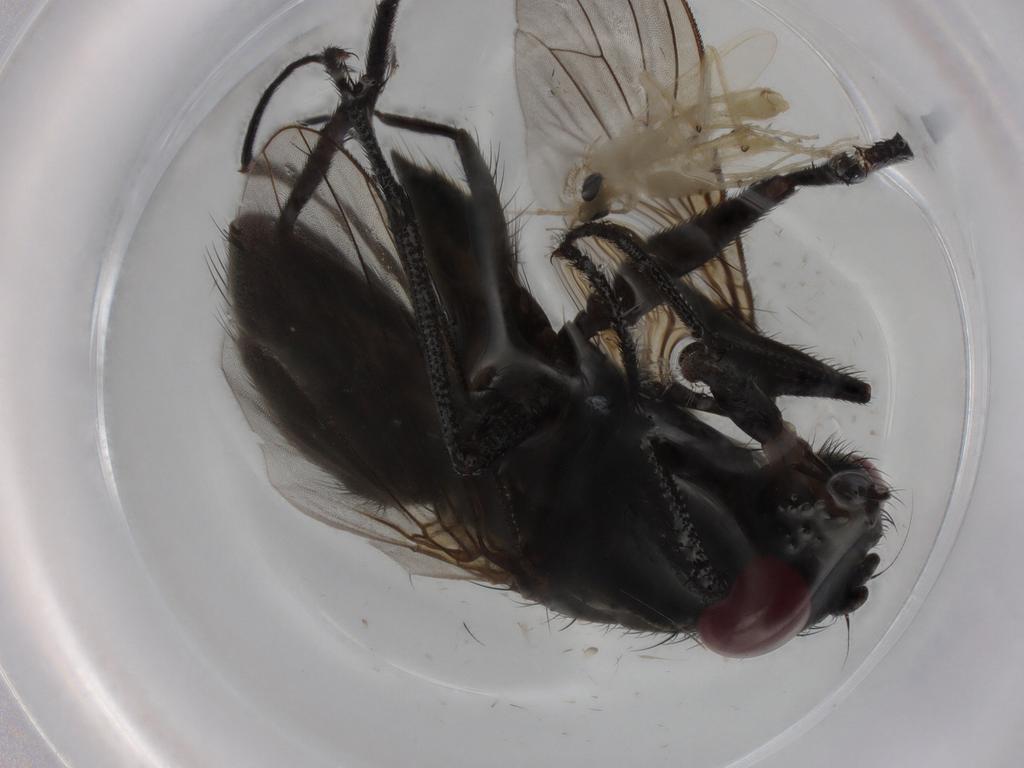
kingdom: Animalia
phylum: Arthropoda
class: Insecta
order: Diptera
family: Muscidae
